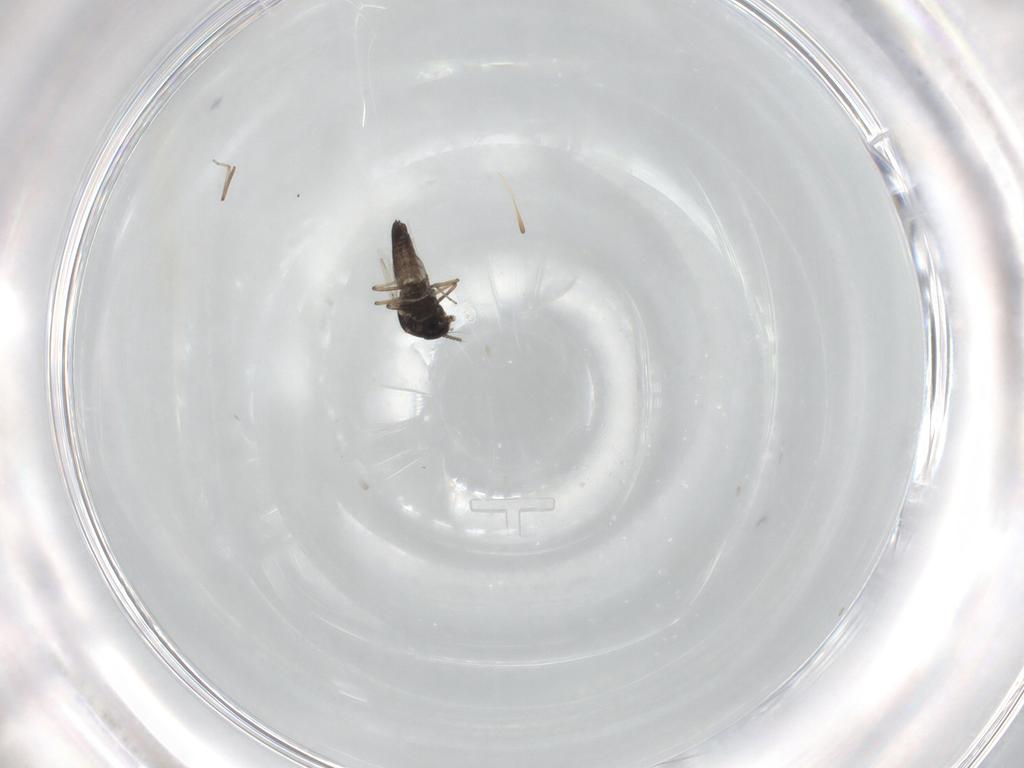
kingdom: Animalia
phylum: Arthropoda
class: Insecta
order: Diptera
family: Ceratopogonidae
